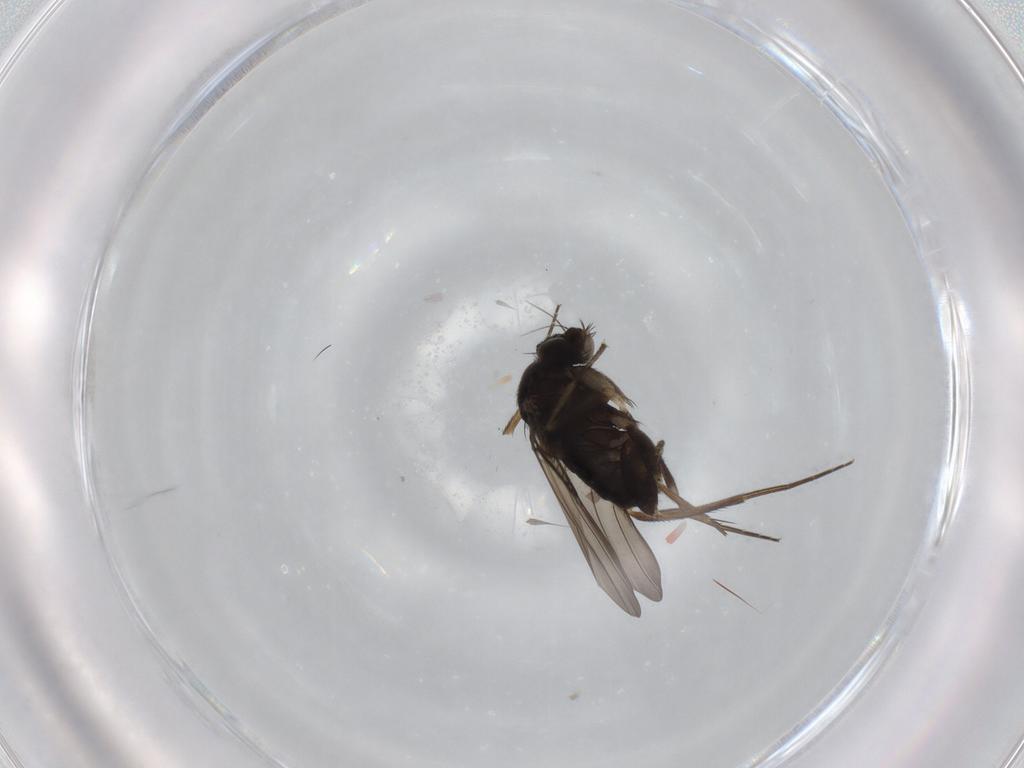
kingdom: Animalia
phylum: Arthropoda
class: Insecta
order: Diptera
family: Phoridae
